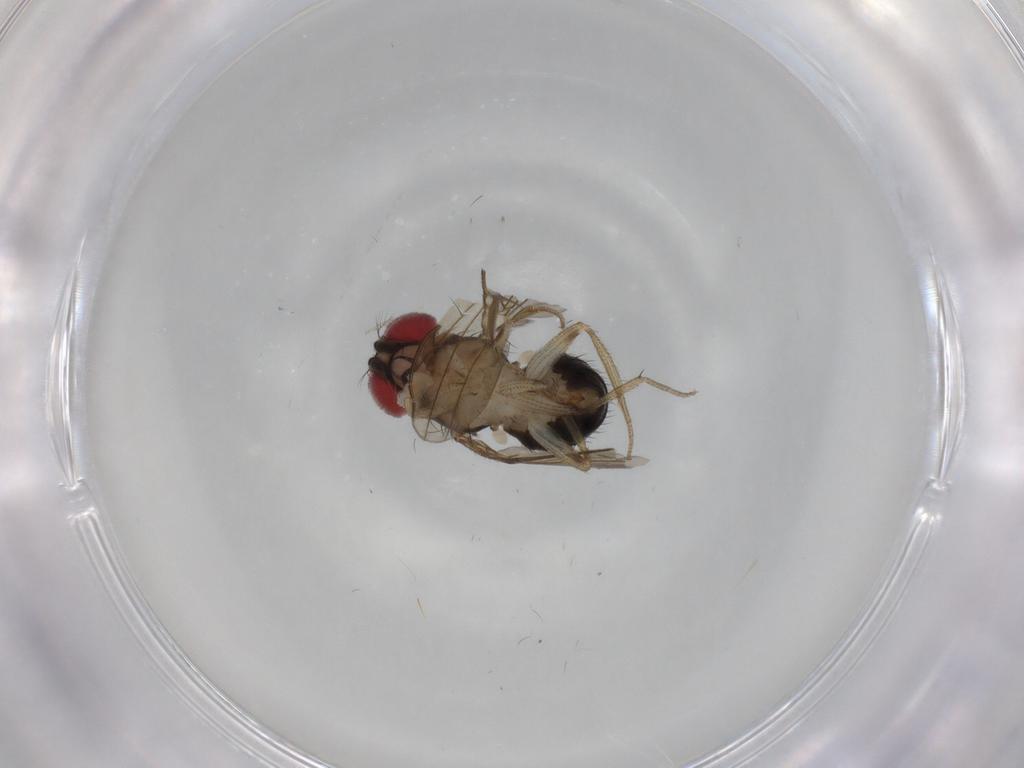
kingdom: Animalia
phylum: Arthropoda
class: Insecta
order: Diptera
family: Drosophilidae
